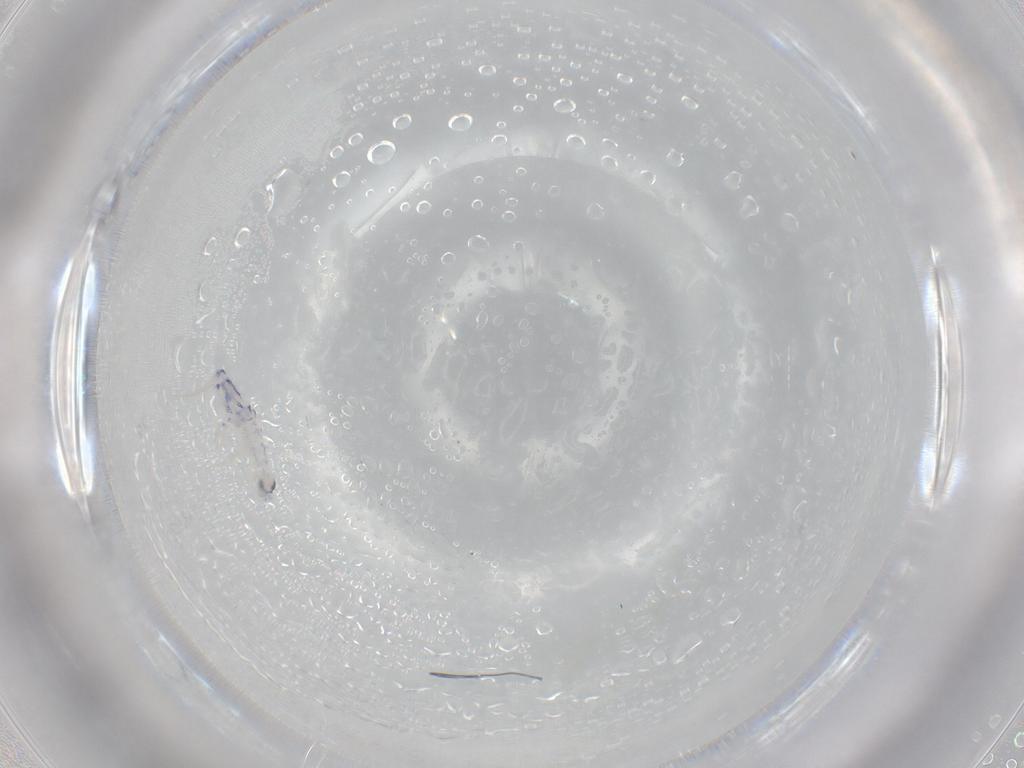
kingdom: Animalia
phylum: Arthropoda
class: Collembola
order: Entomobryomorpha
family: Entomobryidae
